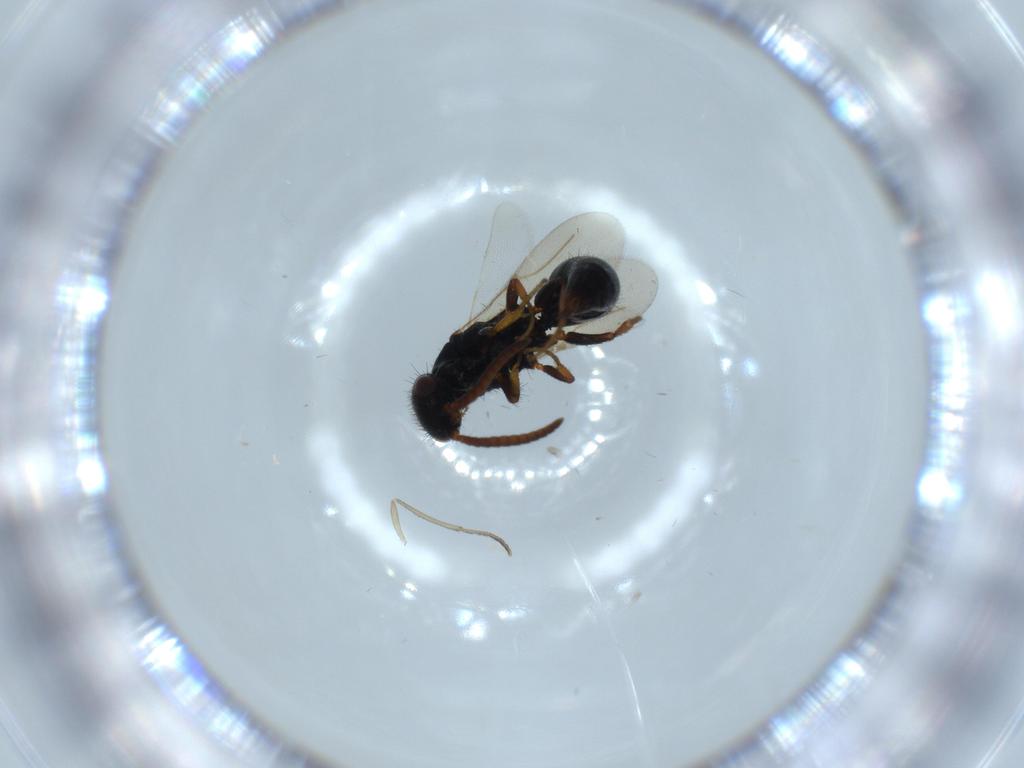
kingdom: Animalia
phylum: Arthropoda
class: Insecta
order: Hymenoptera
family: Bethylidae
